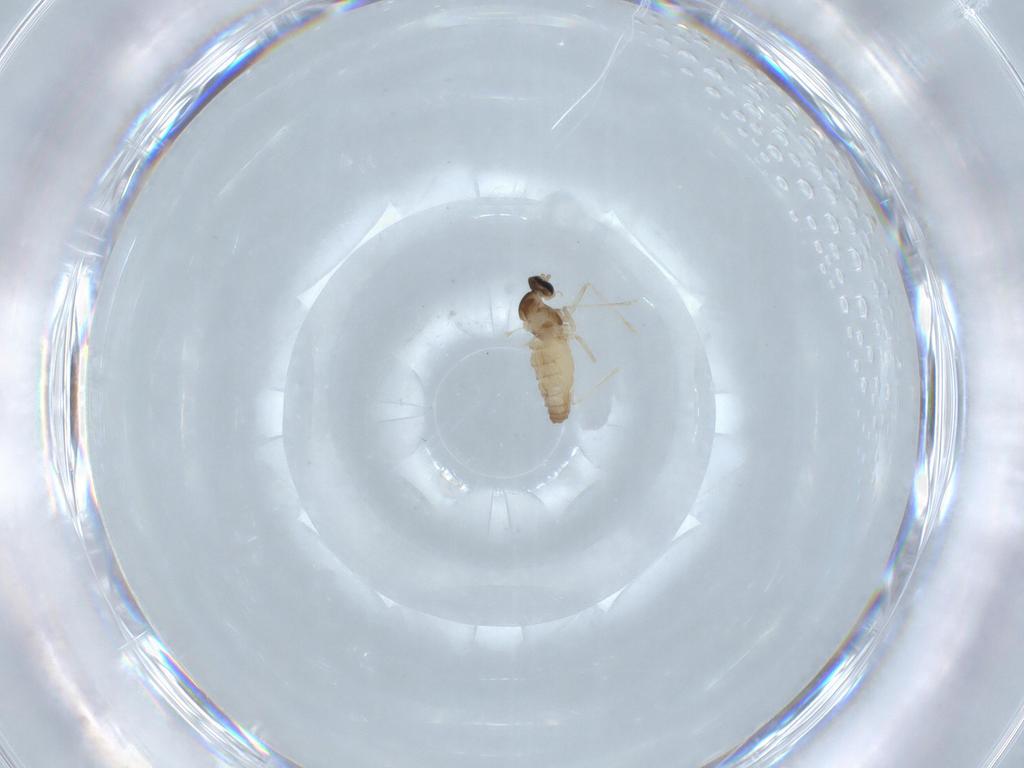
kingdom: Animalia
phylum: Arthropoda
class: Insecta
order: Diptera
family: Cecidomyiidae
